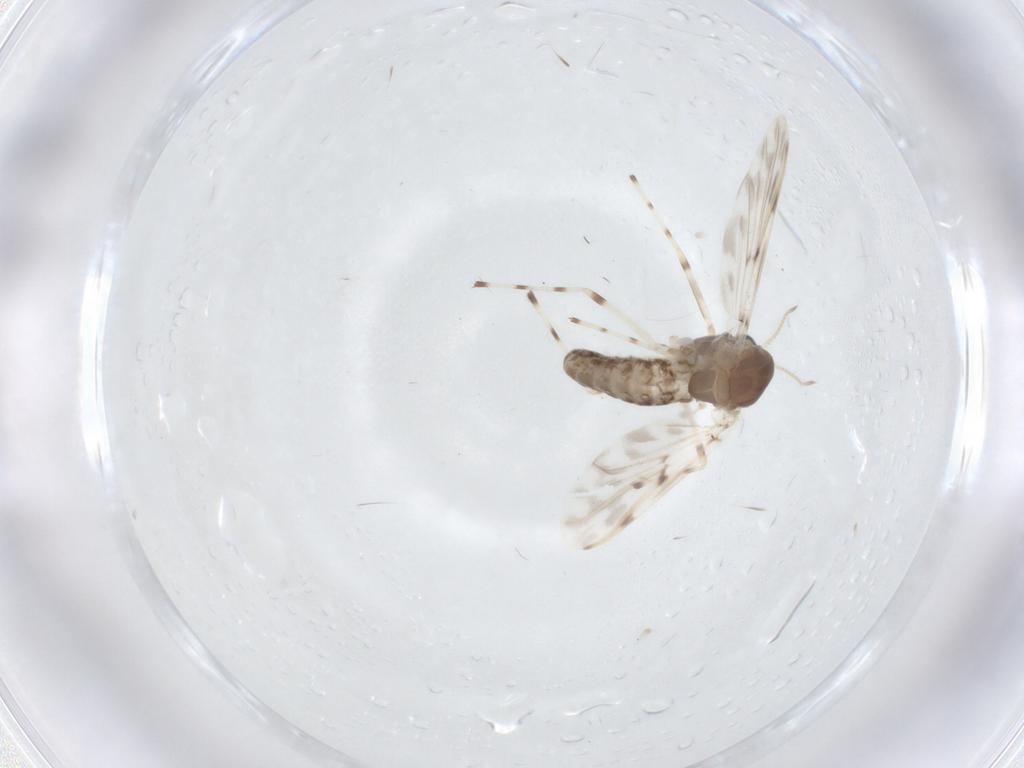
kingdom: Animalia
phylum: Arthropoda
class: Insecta
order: Diptera
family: Chironomidae
